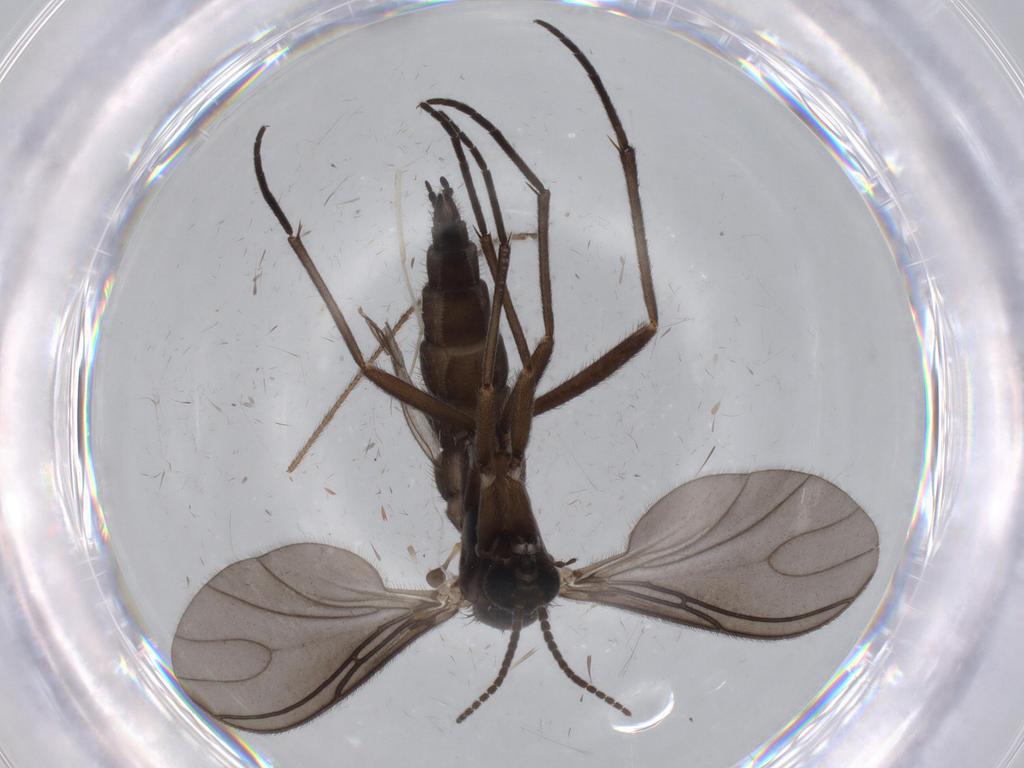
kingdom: Animalia
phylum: Arthropoda
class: Insecta
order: Diptera
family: Sciaridae
